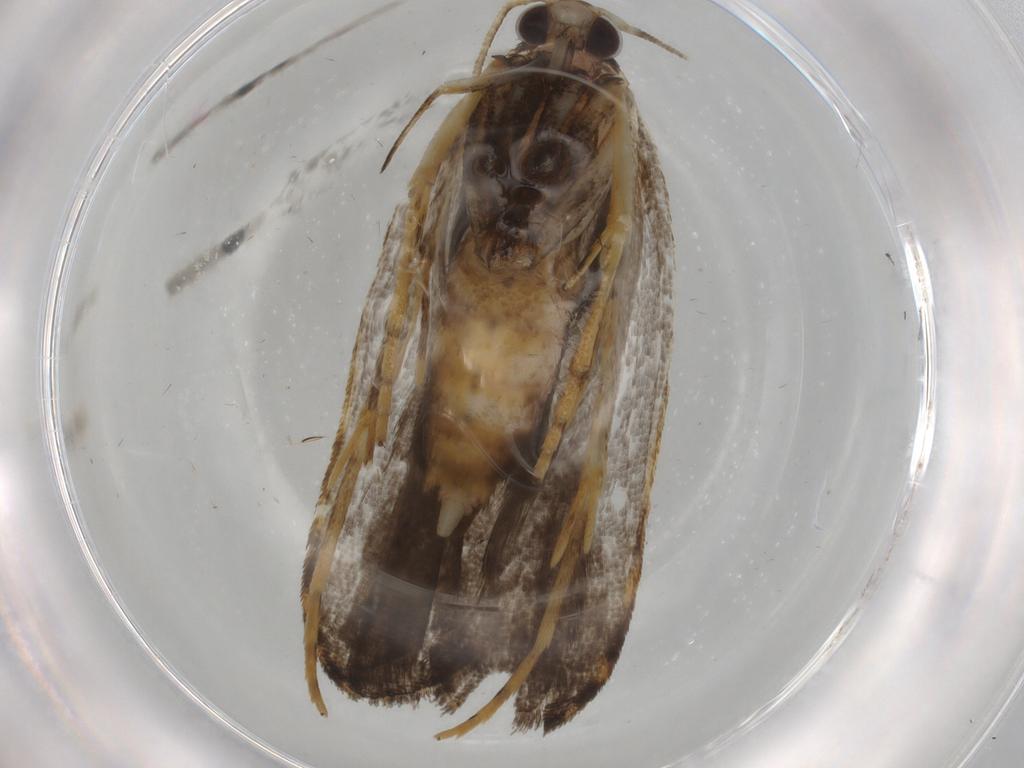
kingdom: Animalia
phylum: Arthropoda
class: Insecta
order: Lepidoptera
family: Cosmopterigidae
